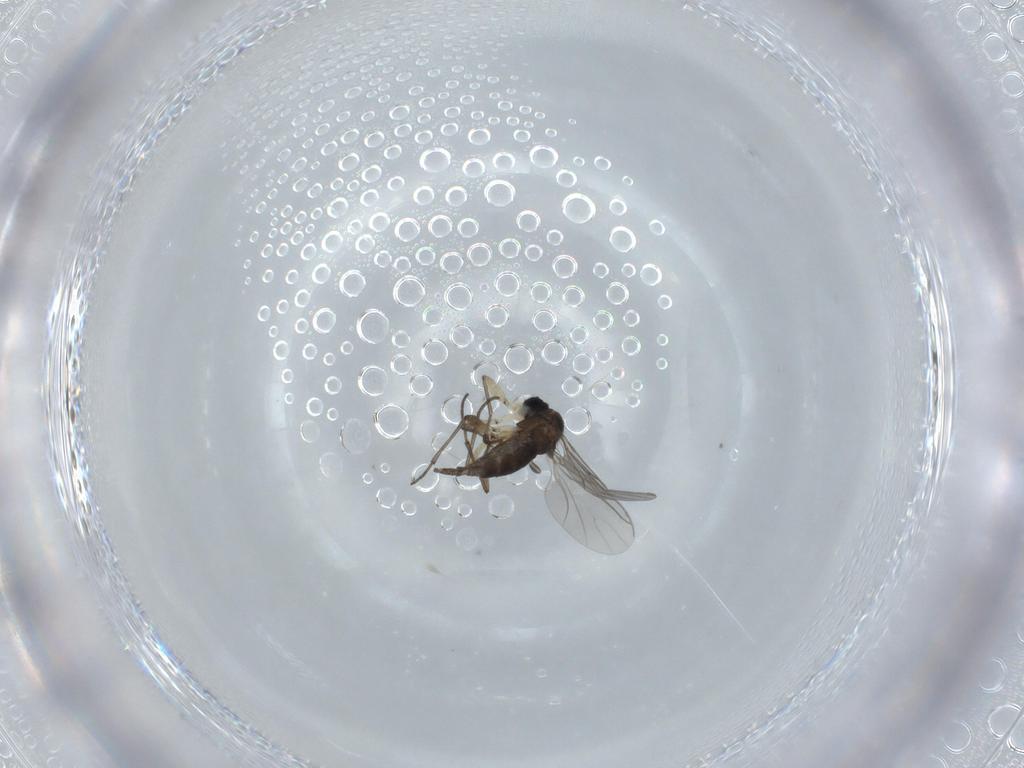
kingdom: Animalia
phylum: Arthropoda
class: Insecta
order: Diptera
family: Sciaridae
